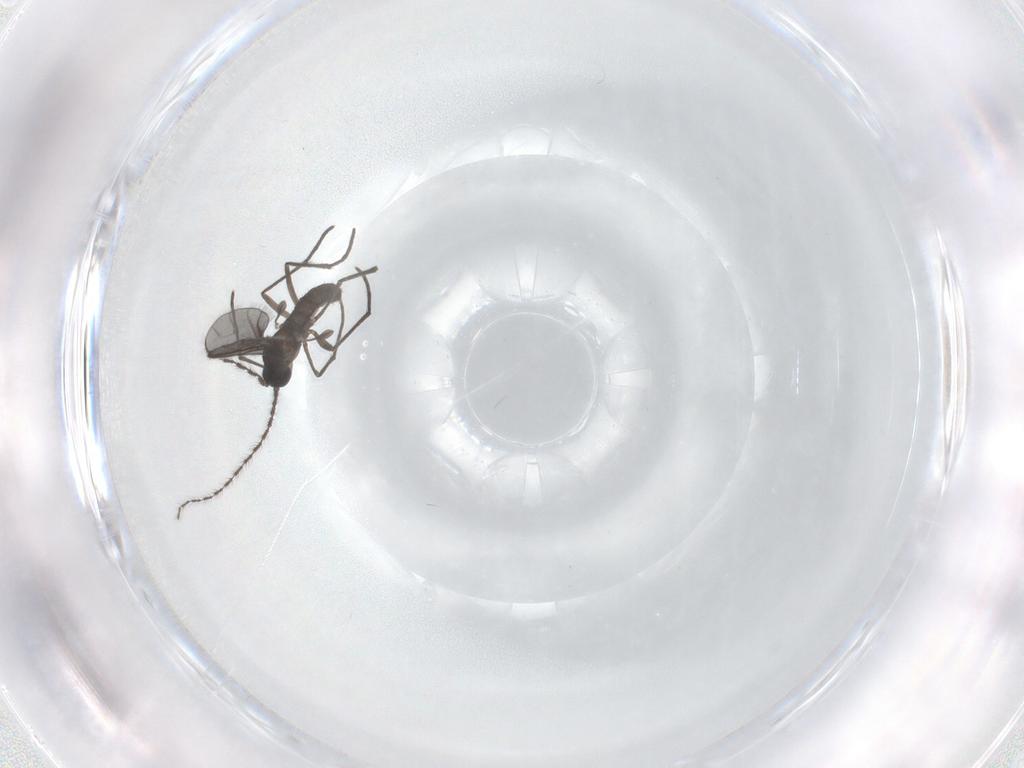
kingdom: Animalia
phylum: Arthropoda
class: Insecta
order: Diptera
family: Sciaridae
